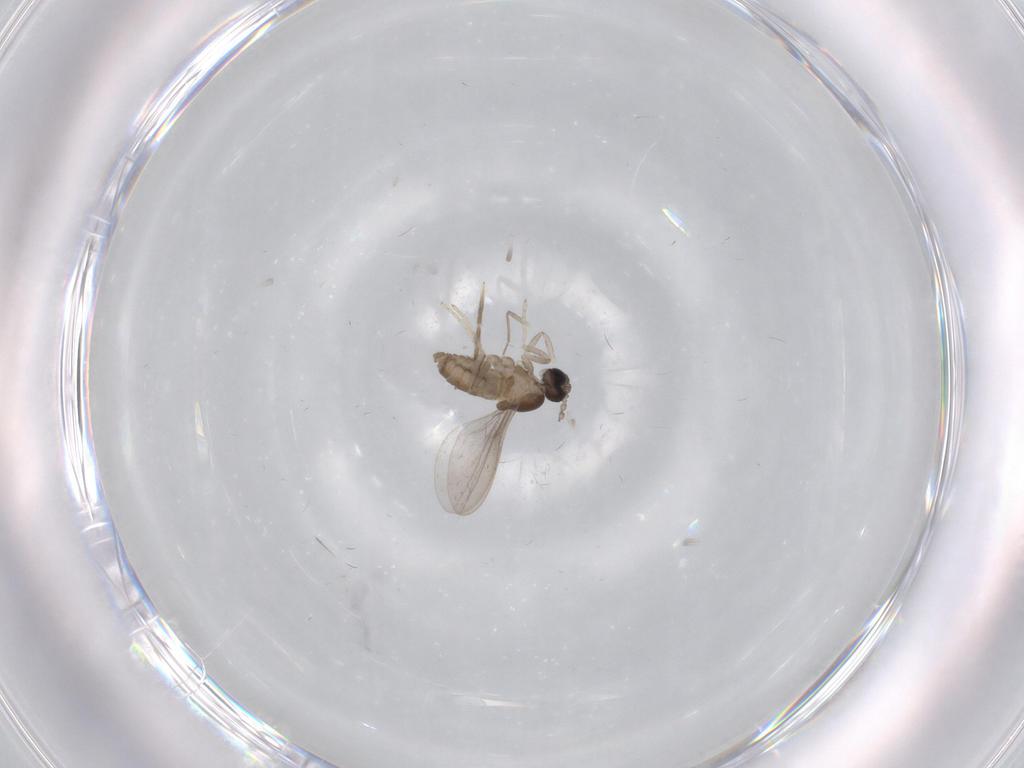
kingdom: Animalia
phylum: Arthropoda
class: Insecta
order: Diptera
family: Cecidomyiidae
